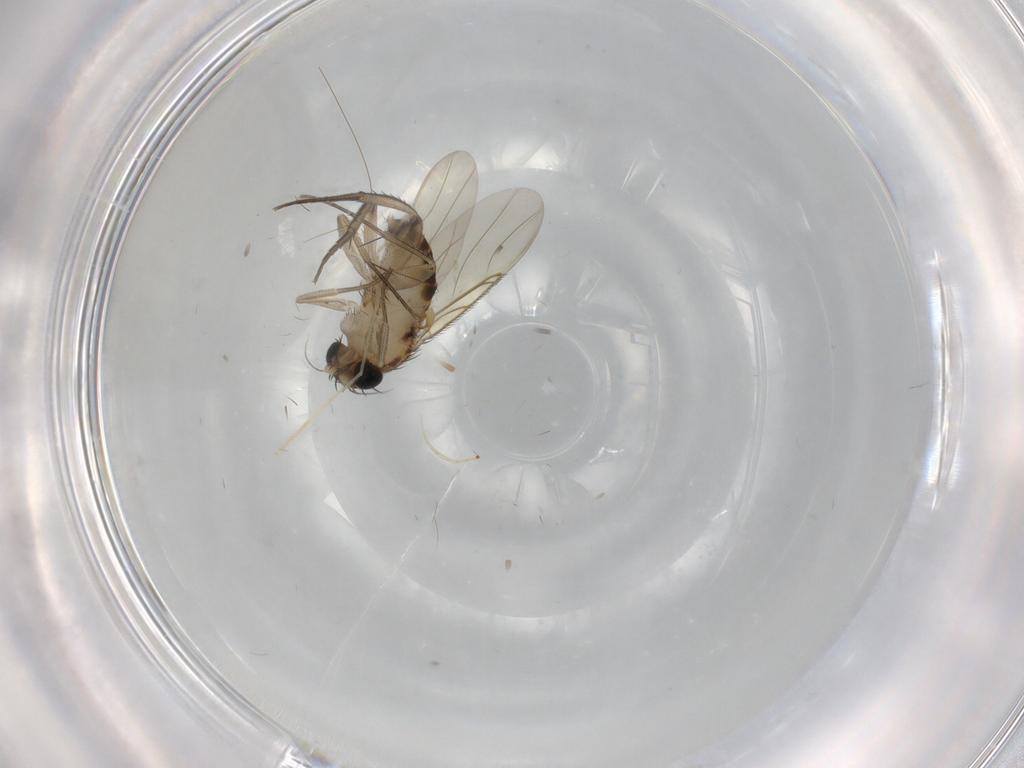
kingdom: Animalia
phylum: Arthropoda
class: Insecta
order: Diptera
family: Phoridae
